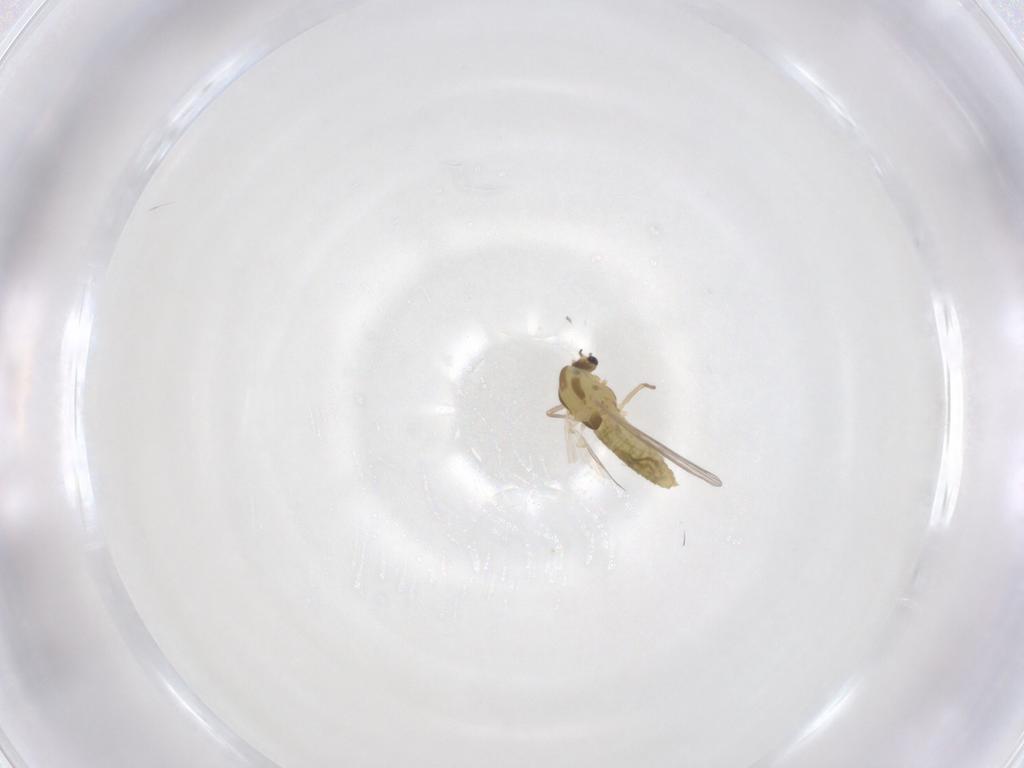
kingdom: Animalia
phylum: Arthropoda
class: Insecta
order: Diptera
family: Chironomidae
